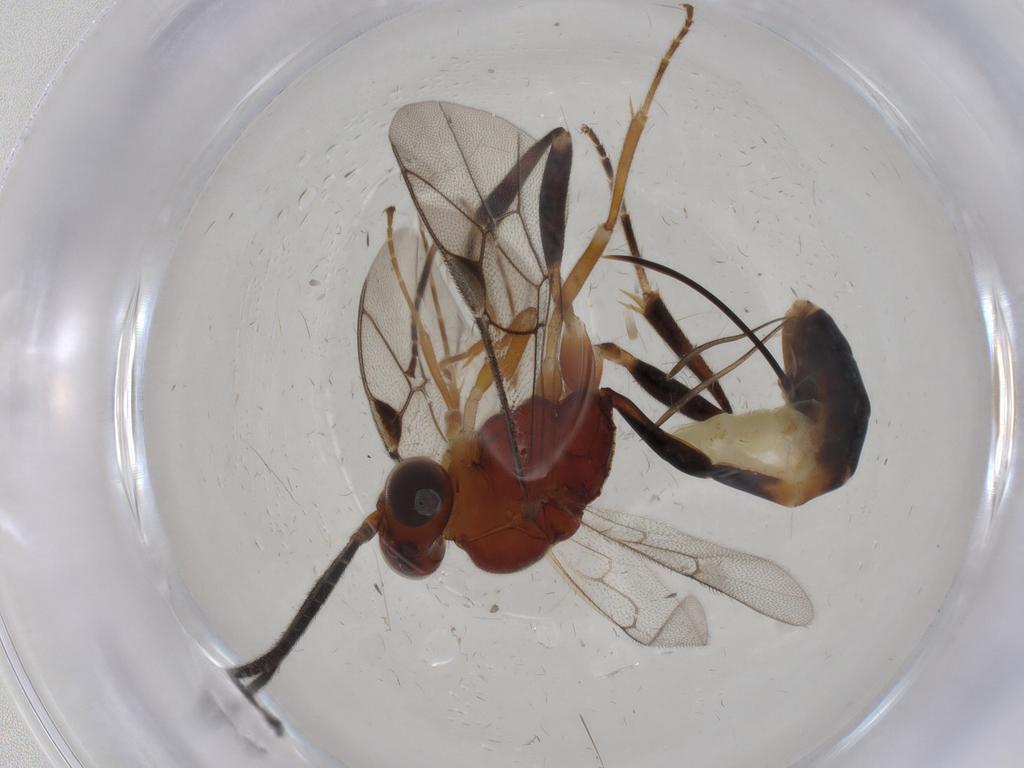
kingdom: Animalia
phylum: Arthropoda
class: Insecta
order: Hymenoptera
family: Ichneumonidae
